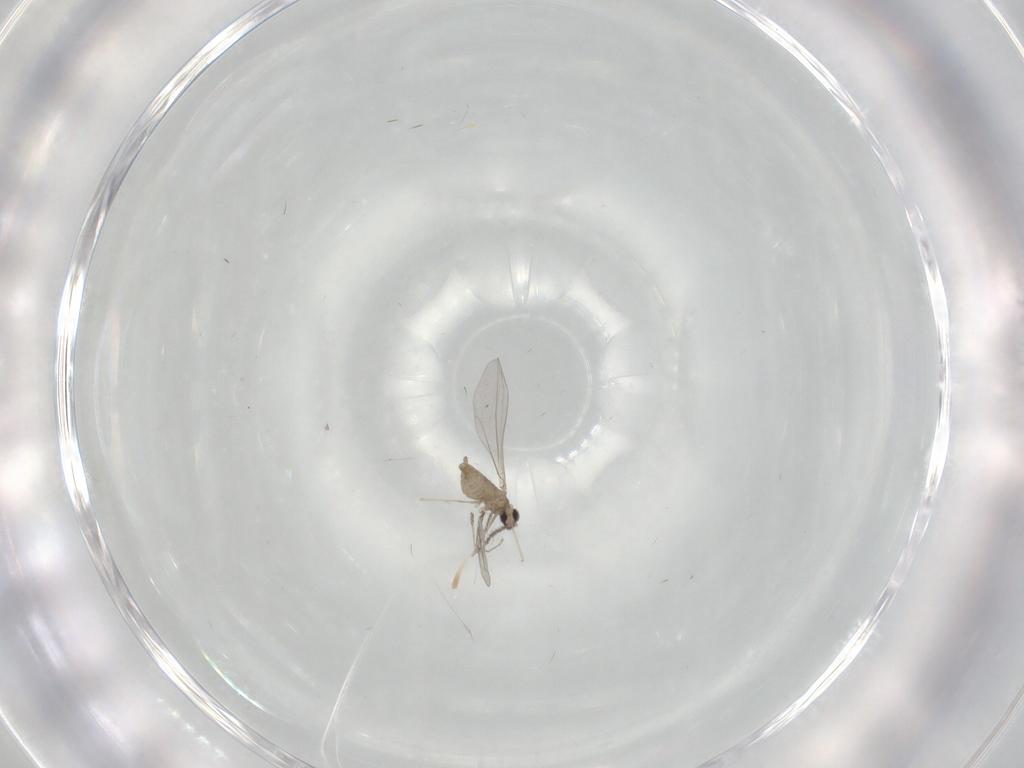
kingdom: Animalia
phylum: Arthropoda
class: Insecta
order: Diptera
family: Cecidomyiidae
